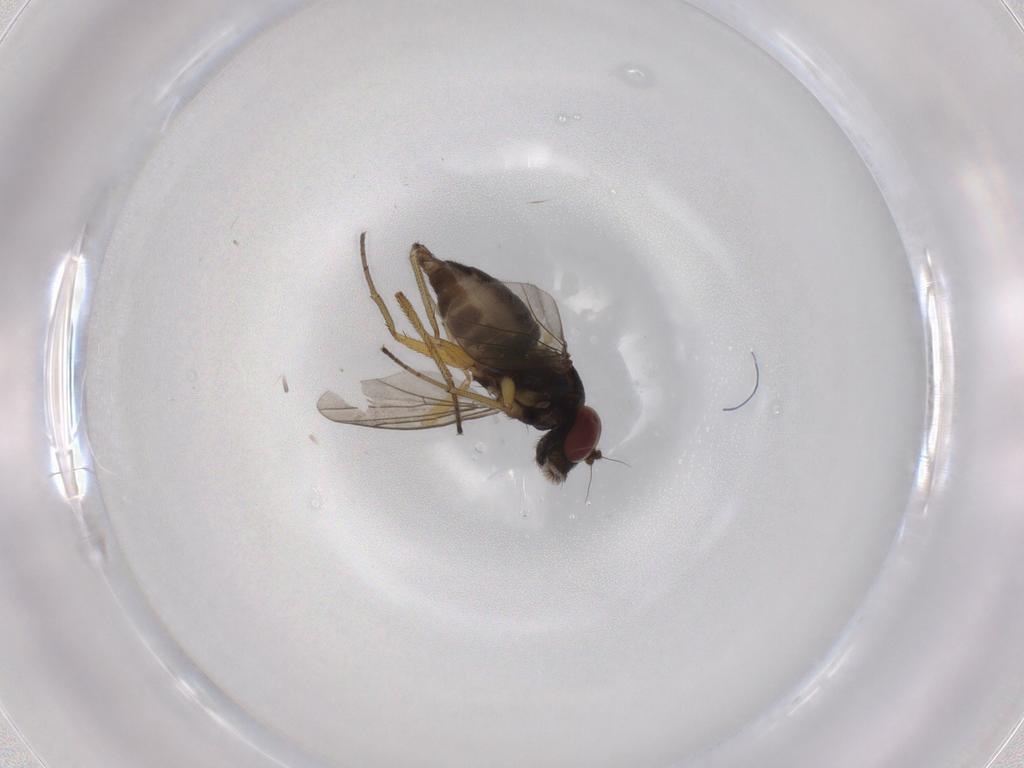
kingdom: Animalia
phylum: Arthropoda
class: Insecta
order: Diptera
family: Dolichopodidae
